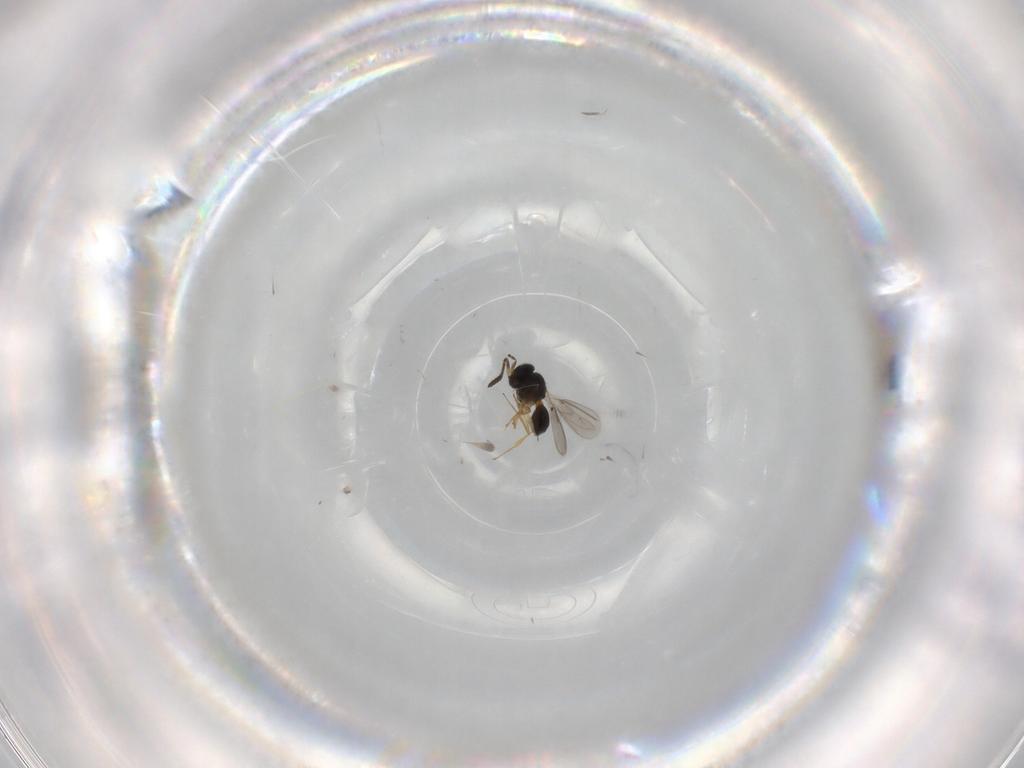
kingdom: Animalia
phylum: Arthropoda
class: Insecta
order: Hymenoptera
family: Scelionidae
